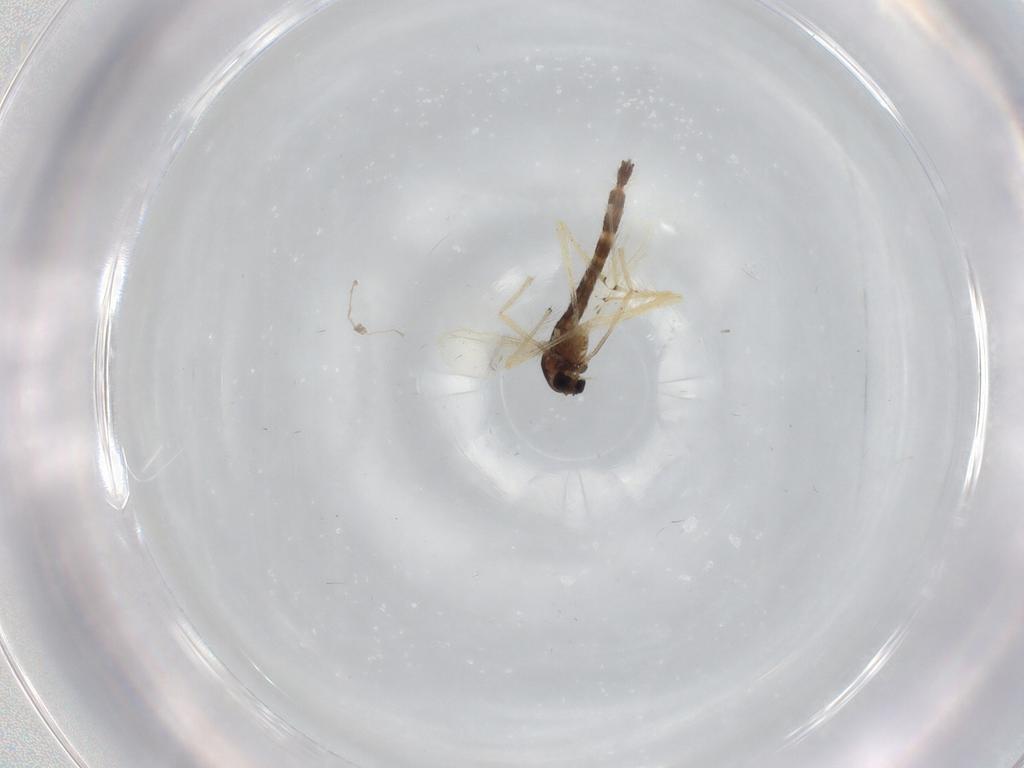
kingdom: Animalia
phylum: Arthropoda
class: Insecta
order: Diptera
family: Chironomidae
